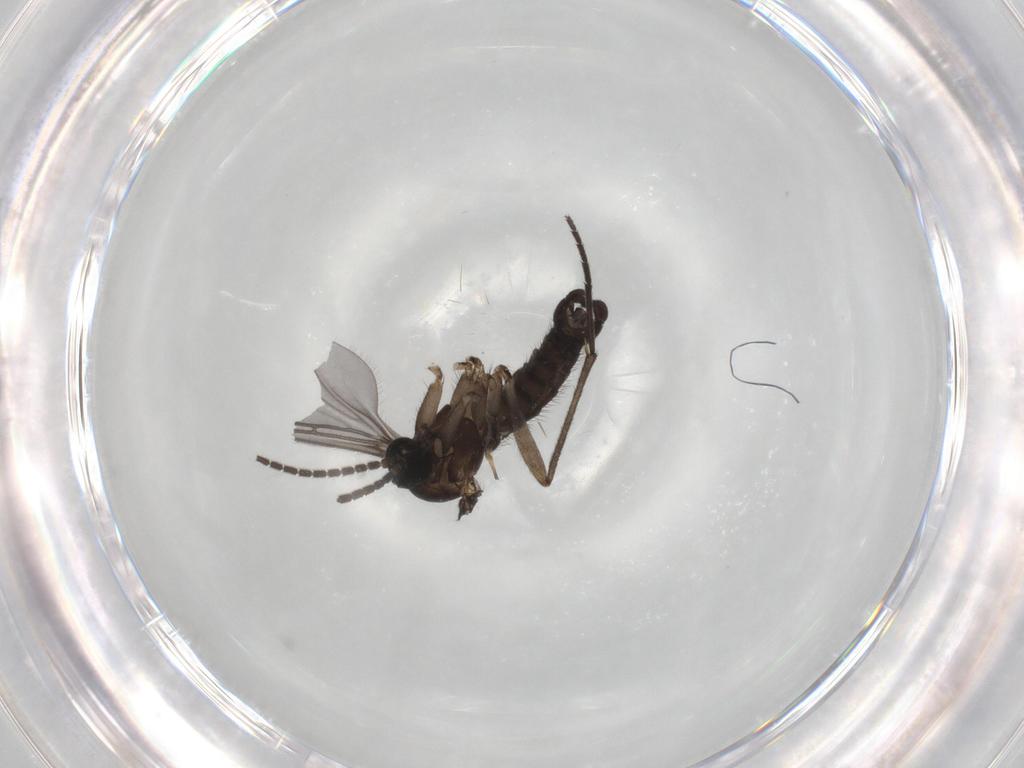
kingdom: Animalia
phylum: Arthropoda
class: Insecta
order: Diptera
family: Sciaridae
